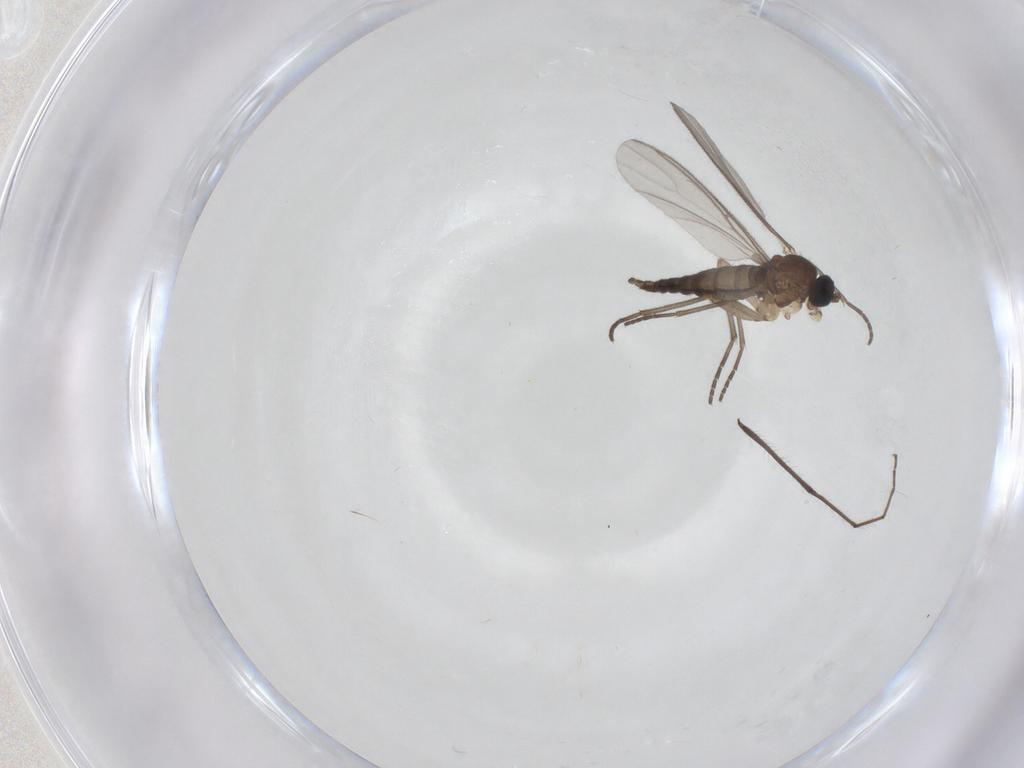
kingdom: Animalia
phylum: Arthropoda
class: Insecta
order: Diptera
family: Sciaridae
